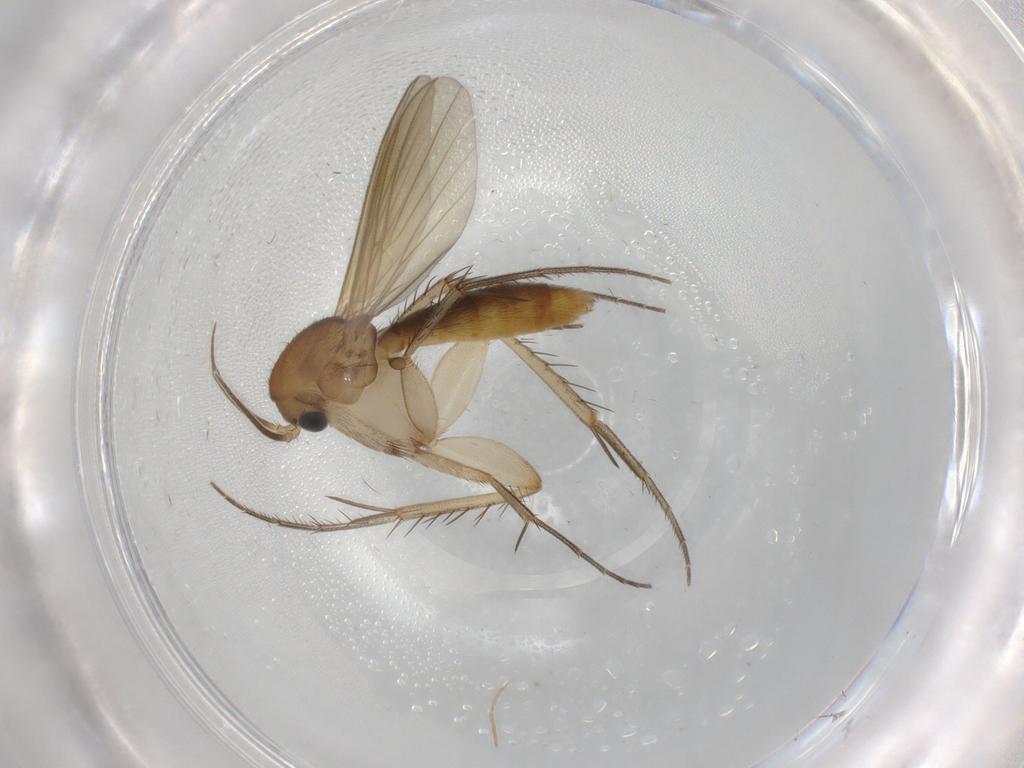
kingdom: Animalia
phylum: Arthropoda
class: Insecta
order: Diptera
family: Mycetophilidae
